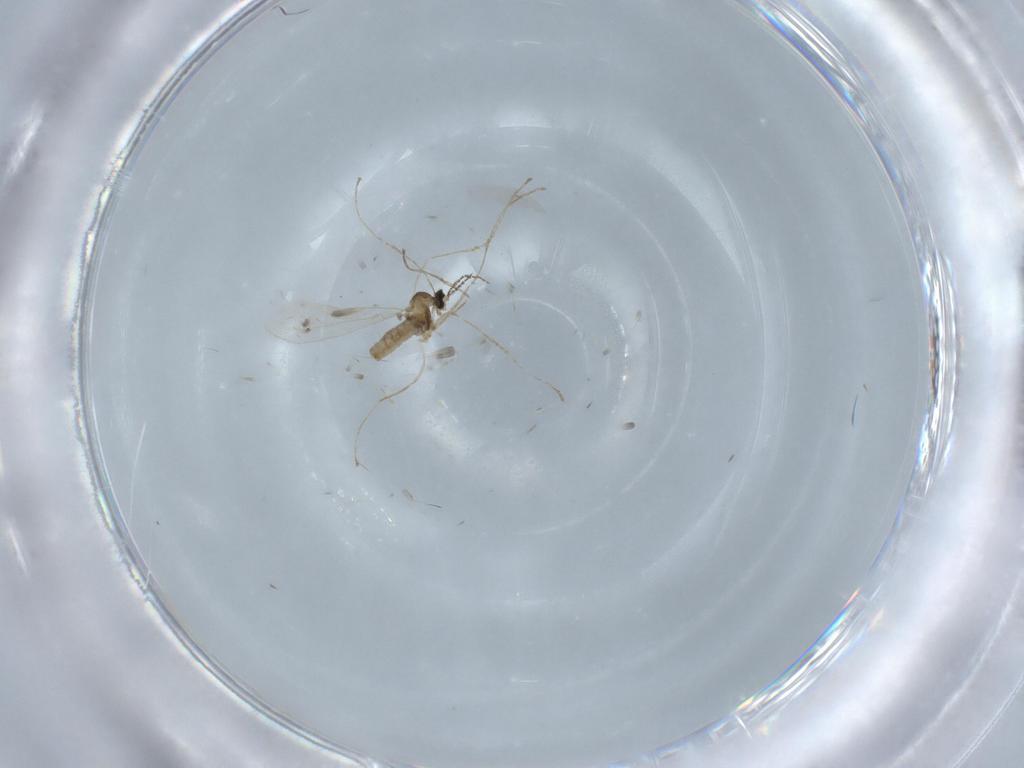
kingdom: Animalia
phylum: Arthropoda
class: Insecta
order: Diptera
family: Cecidomyiidae
